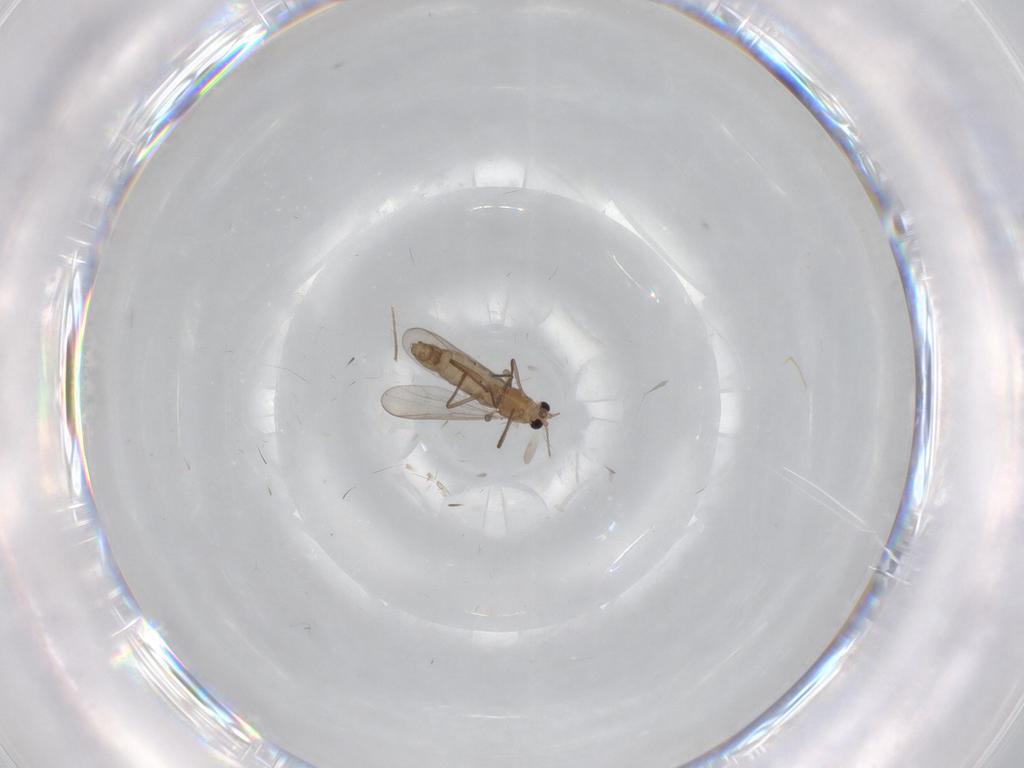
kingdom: Animalia
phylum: Arthropoda
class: Insecta
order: Diptera
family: Chironomidae
